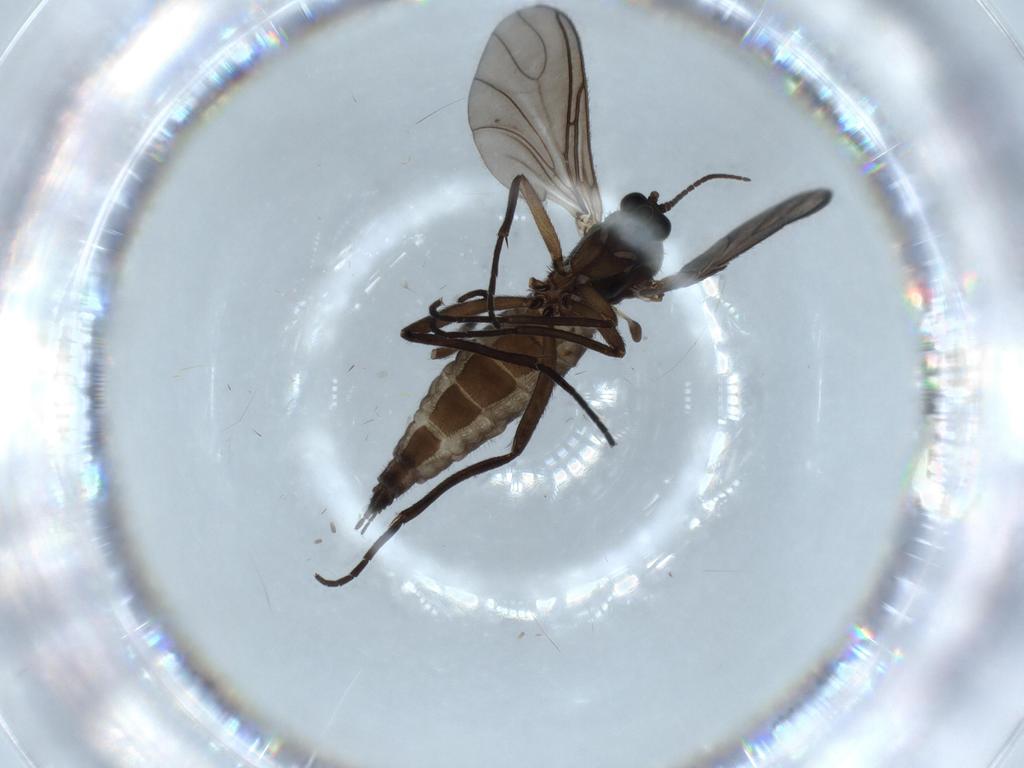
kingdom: Animalia
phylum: Arthropoda
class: Insecta
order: Diptera
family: Sciaridae
